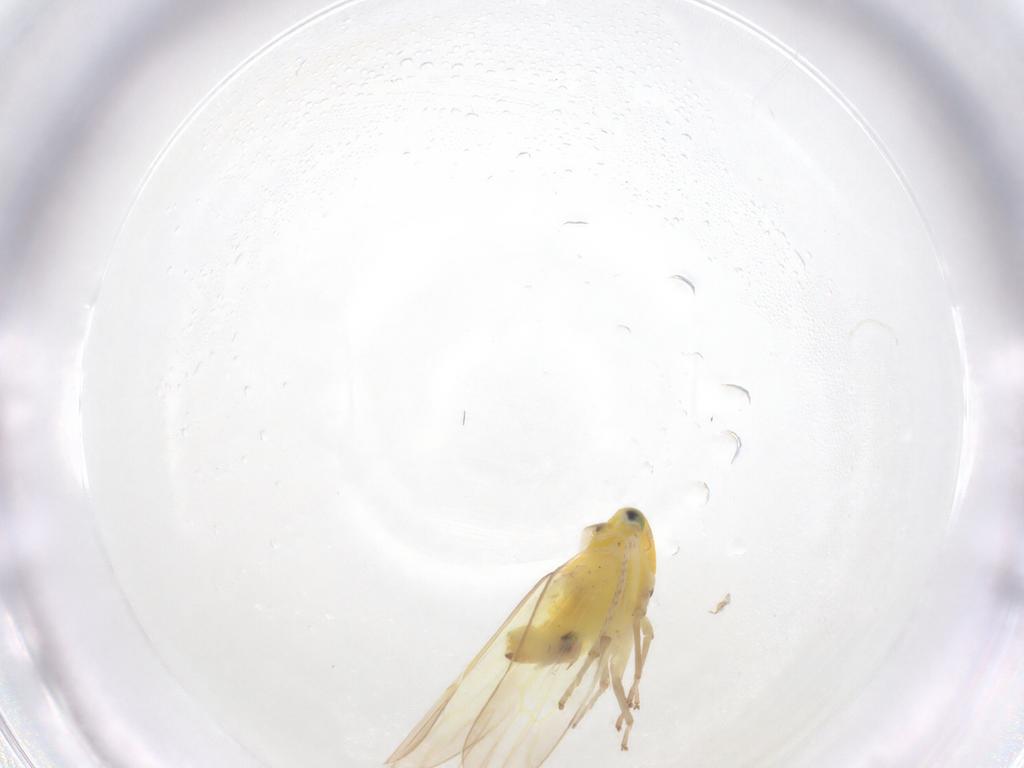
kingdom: Animalia
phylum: Arthropoda
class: Insecta
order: Hemiptera
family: Cicadellidae
